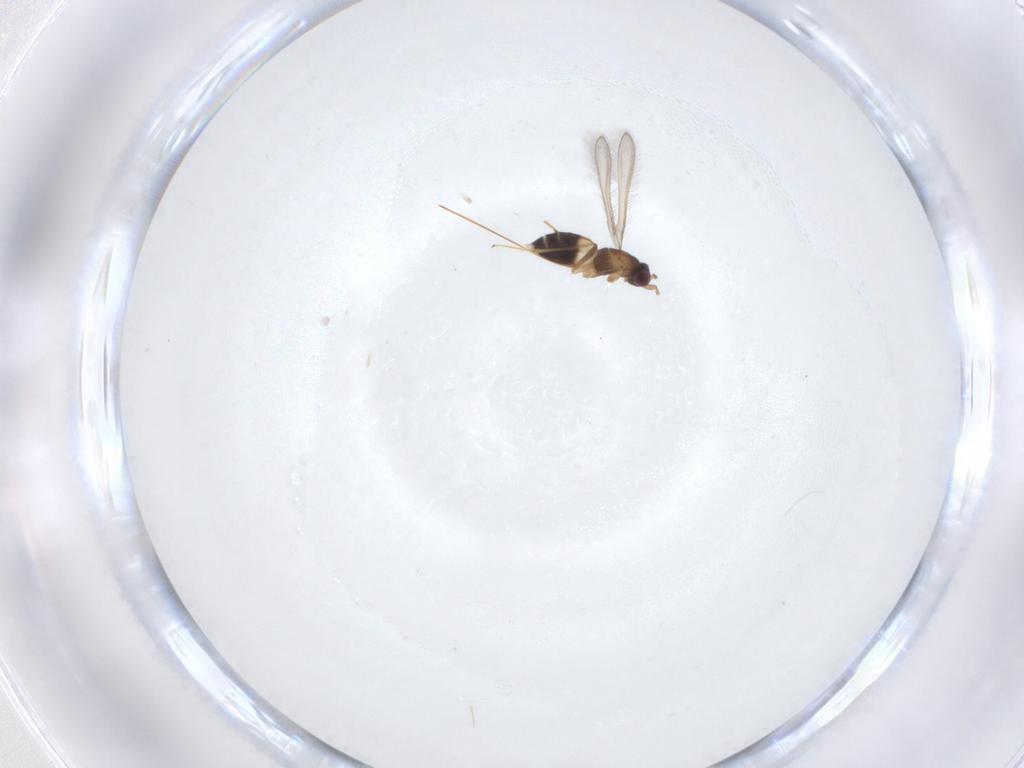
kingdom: Animalia
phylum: Arthropoda
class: Insecta
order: Hymenoptera
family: Mymaridae
